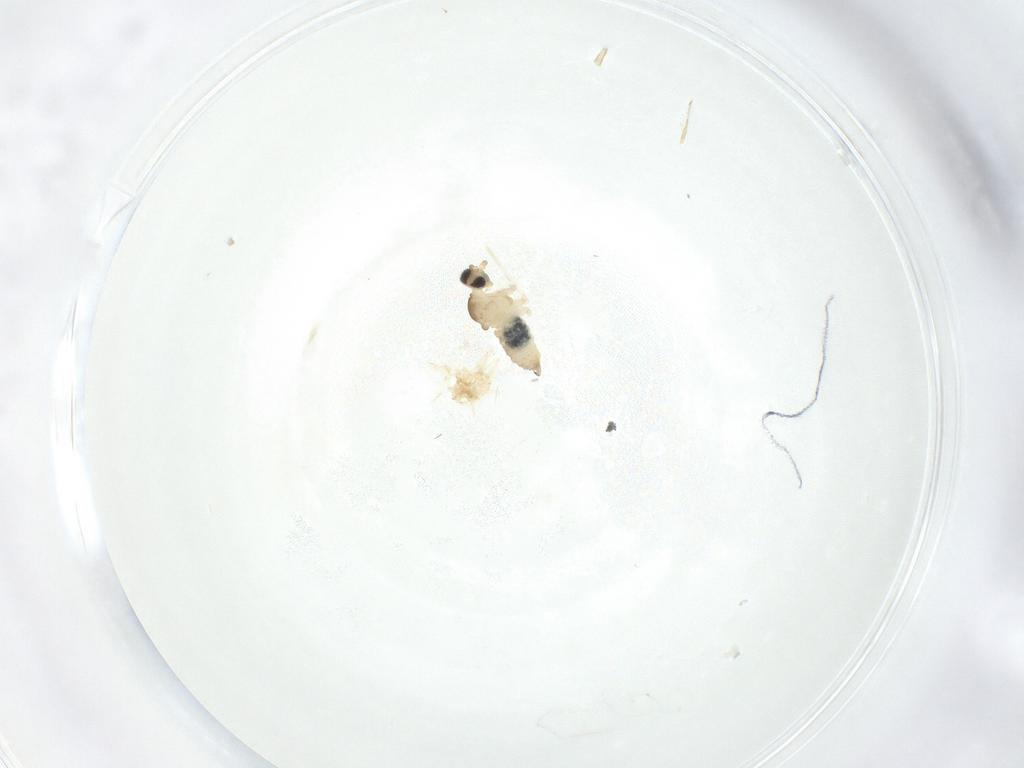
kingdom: Animalia
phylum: Arthropoda
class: Insecta
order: Diptera
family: Cecidomyiidae
